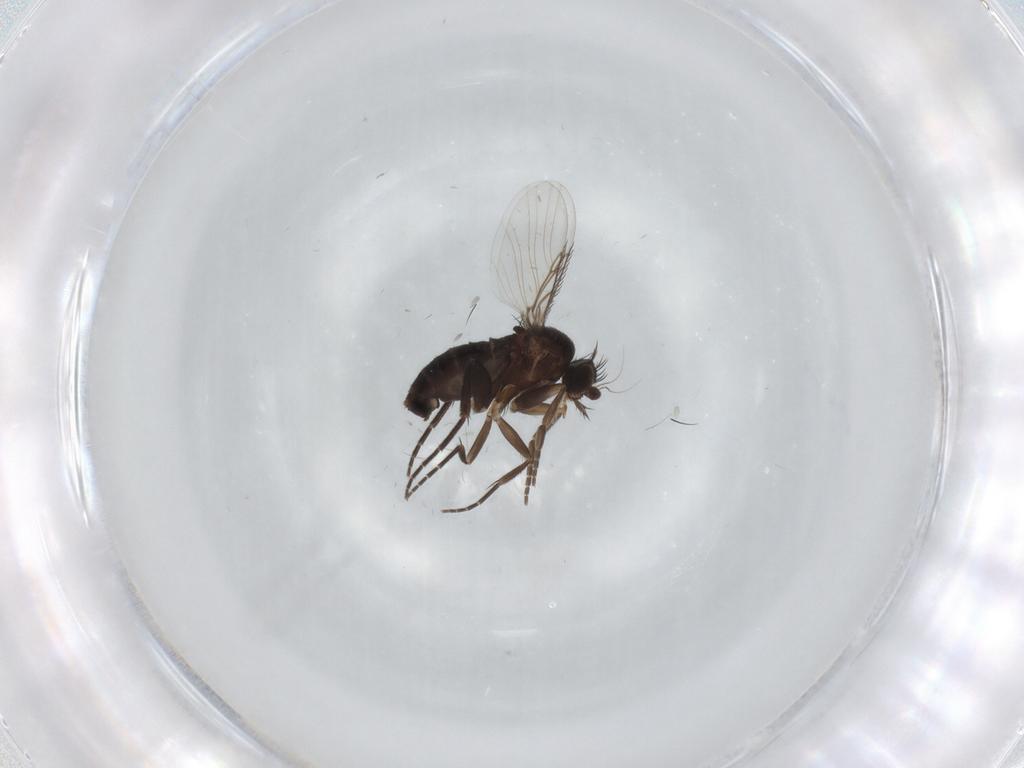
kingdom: Animalia
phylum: Arthropoda
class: Insecta
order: Diptera
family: Phoridae
